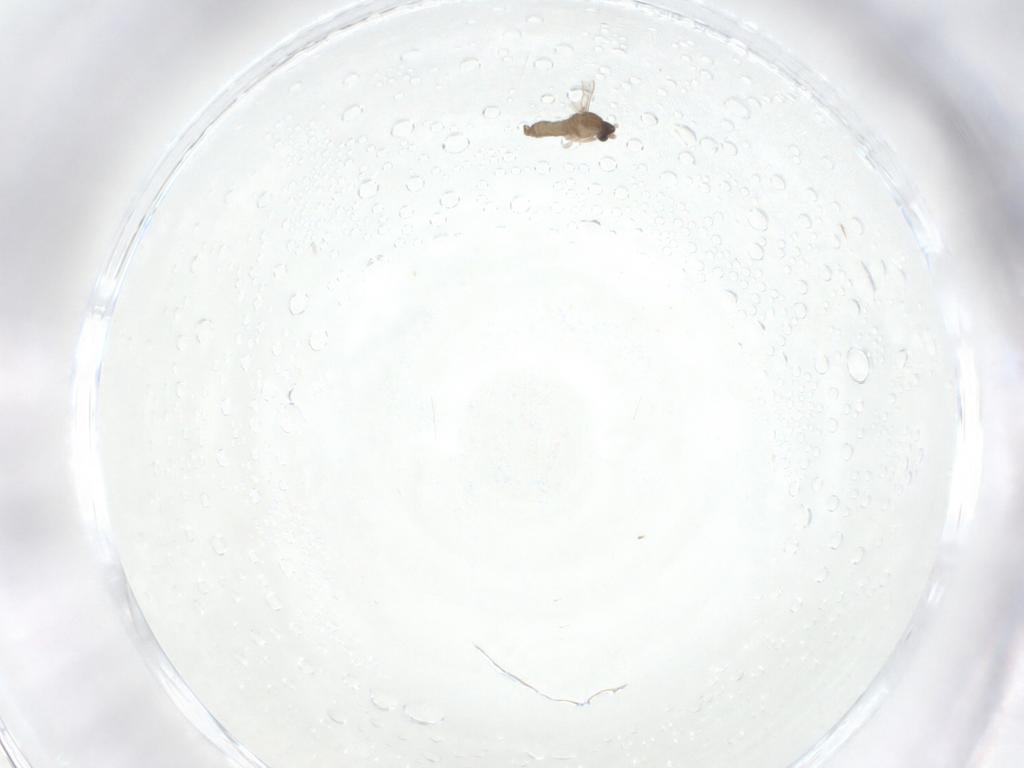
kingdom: Animalia
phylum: Arthropoda
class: Insecta
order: Diptera
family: Cecidomyiidae
